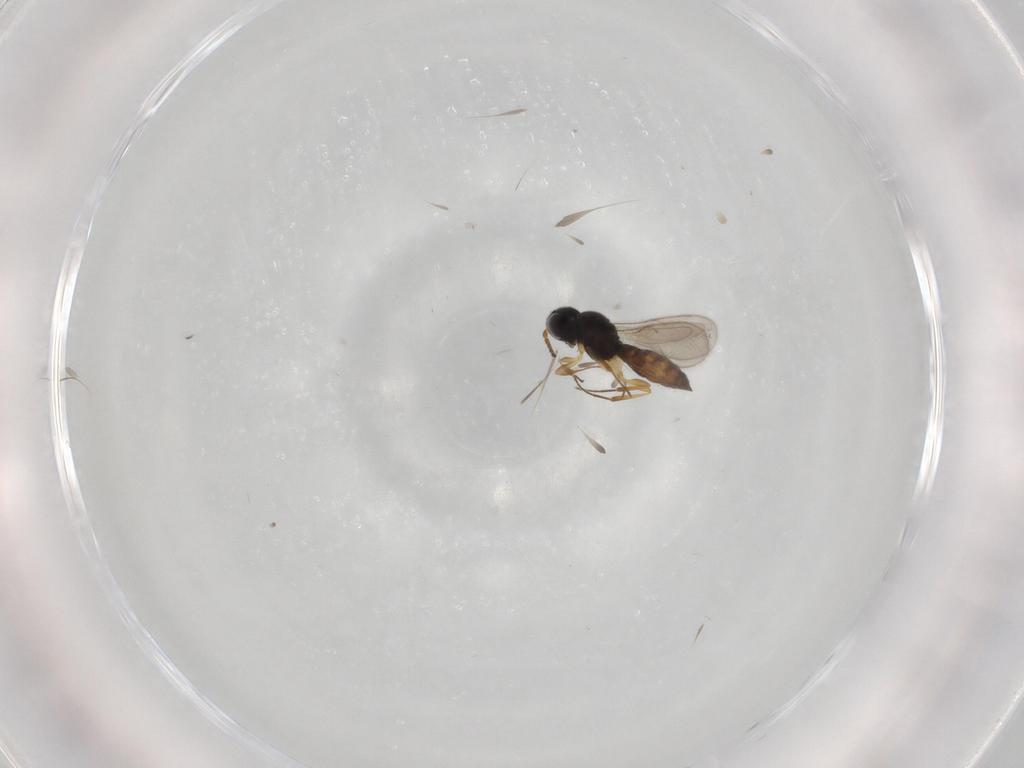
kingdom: Animalia
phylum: Arthropoda
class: Insecta
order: Hymenoptera
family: Scelionidae
